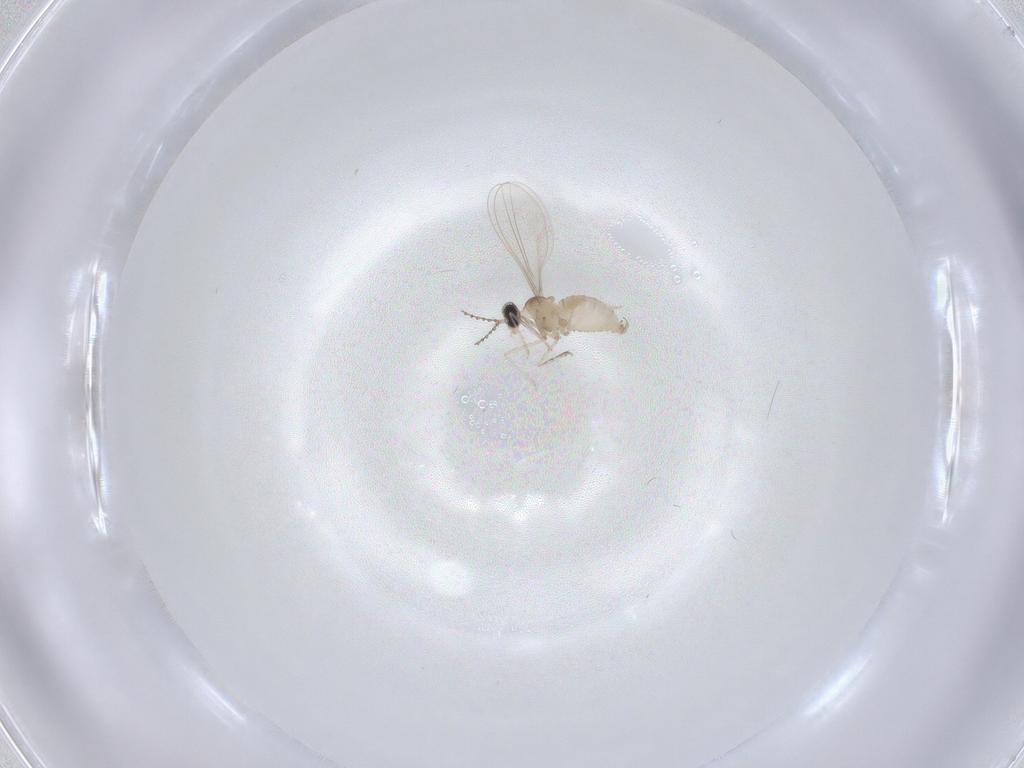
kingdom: Animalia
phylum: Arthropoda
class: Insecta
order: Diptera
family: Cecidomyiidae
